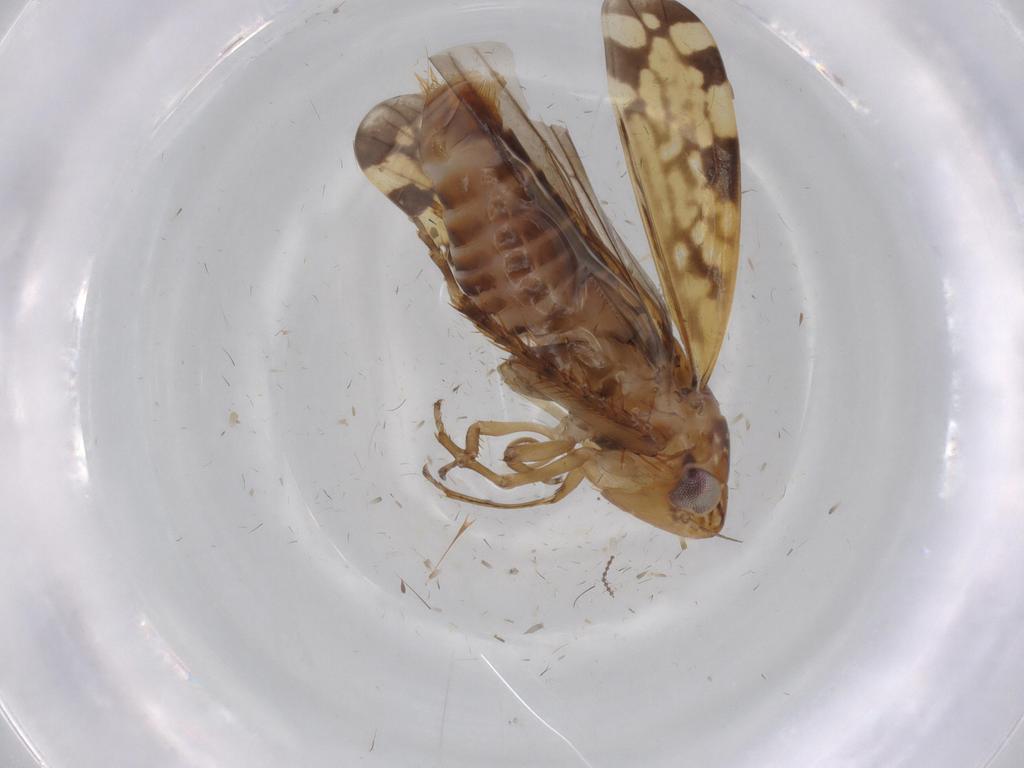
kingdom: Animalia
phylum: Arthropoda
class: Insecta
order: Hemiptera
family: Cicadellidae
